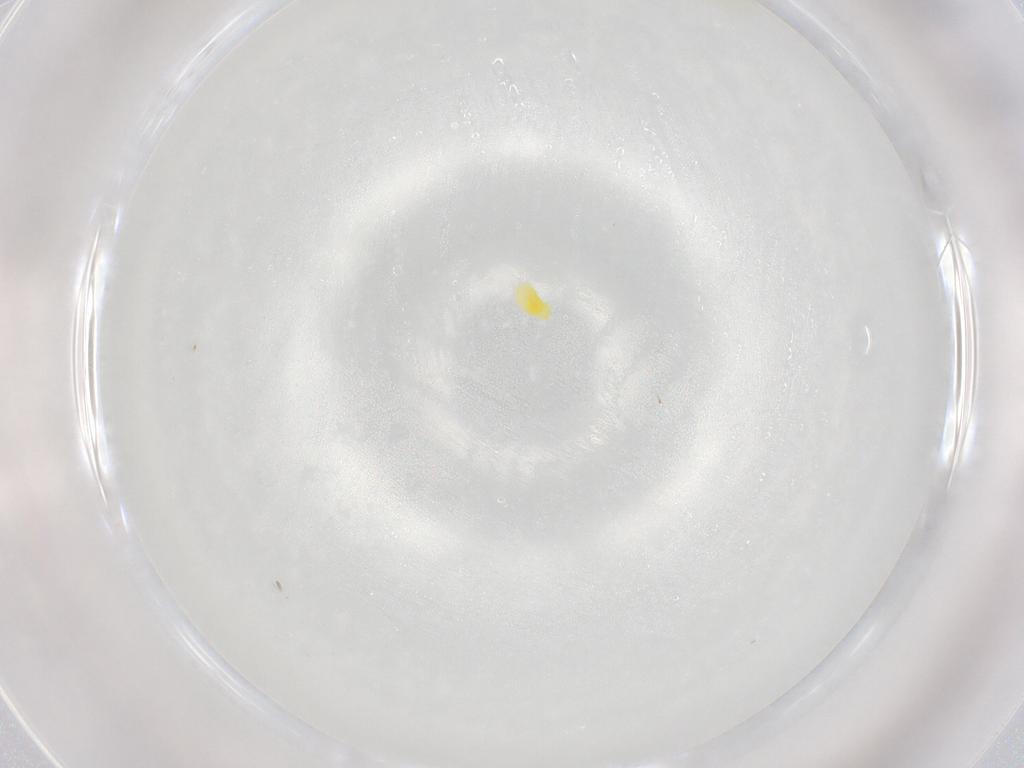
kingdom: Animalia
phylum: Arthropoda
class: Insecta
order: Hemiptera
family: Aleyrodidae
